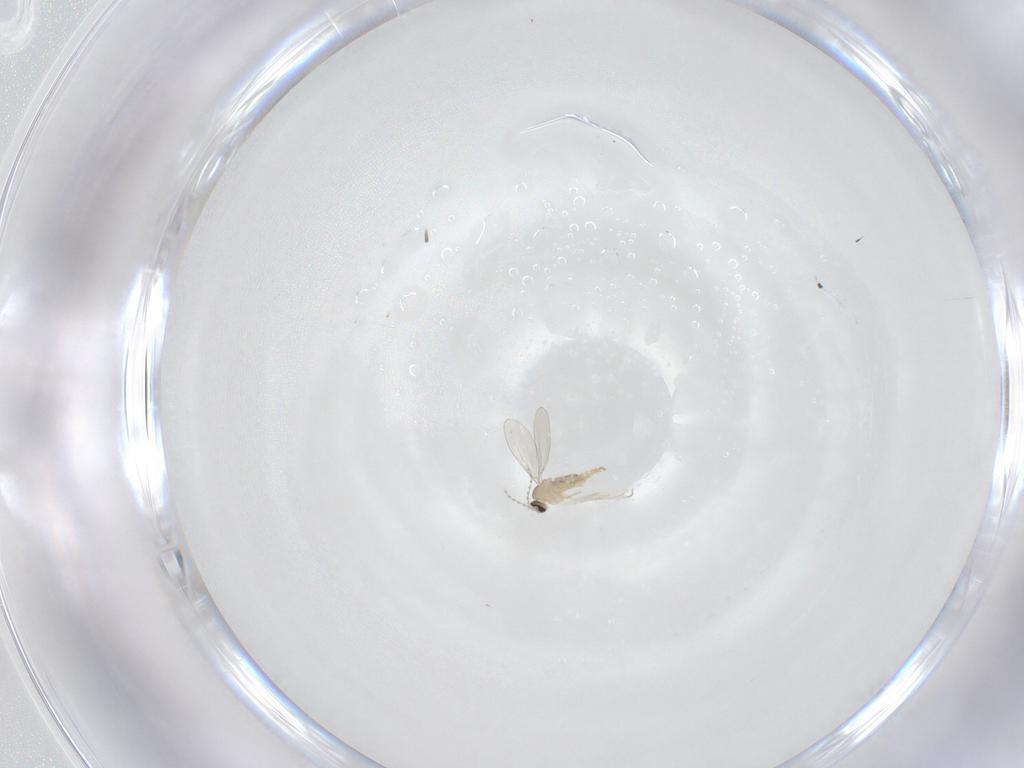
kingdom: Animalia
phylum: Arthropoda
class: Insecta
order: Diptera
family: Cecidomyiidae
